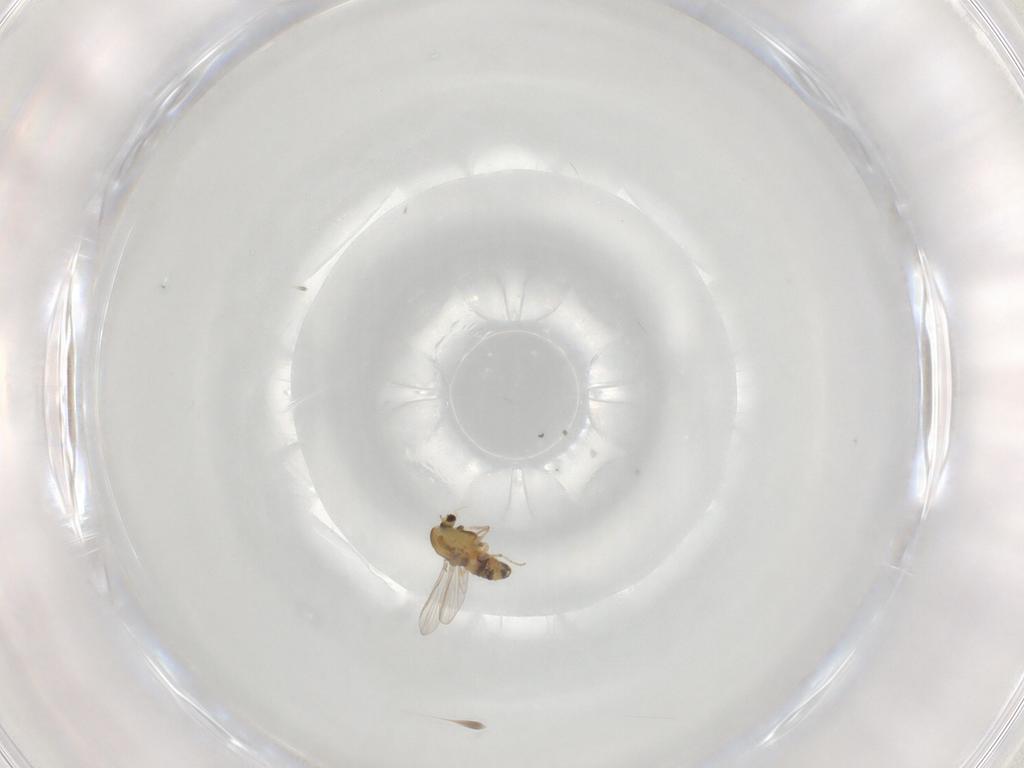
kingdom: Animalia
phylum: Arthropoda
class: Insecta
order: Diptera
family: Chironomidae
